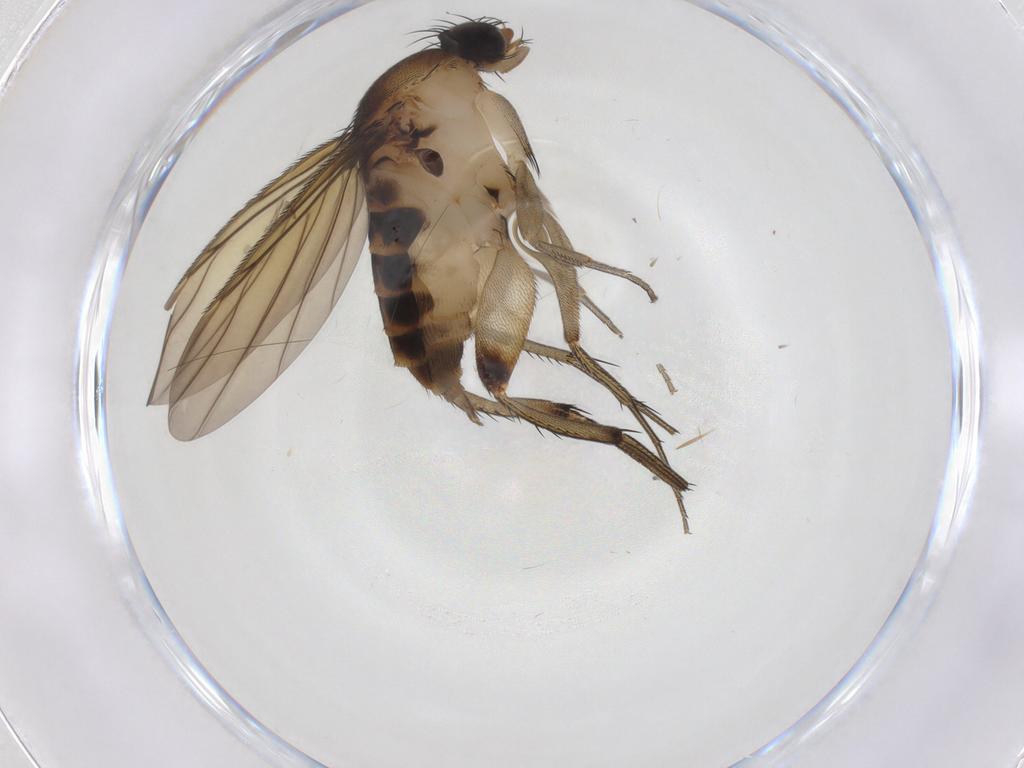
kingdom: Animalia
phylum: Arthropoda
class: Insecta
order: Diptera
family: Phoridae
